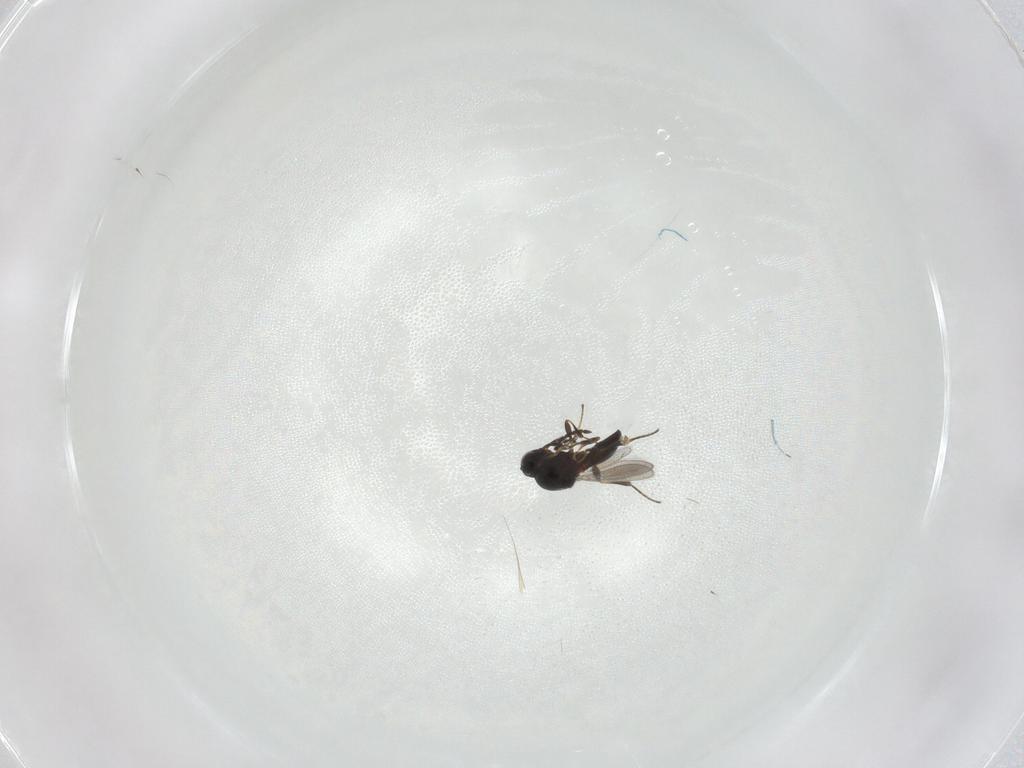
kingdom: Animalia
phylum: Arthropoda
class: Insecta
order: Hymenoptera
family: Platygastridae
